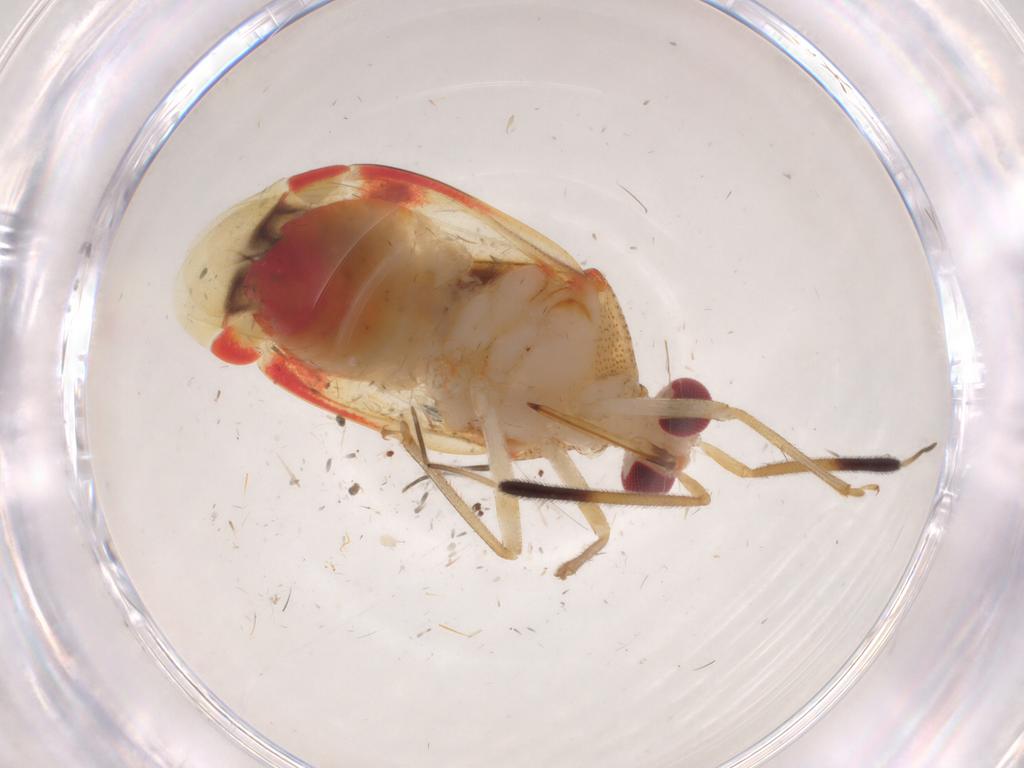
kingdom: Animalia
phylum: Arthropoda
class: Insecta
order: Hemiptera
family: Miridae
